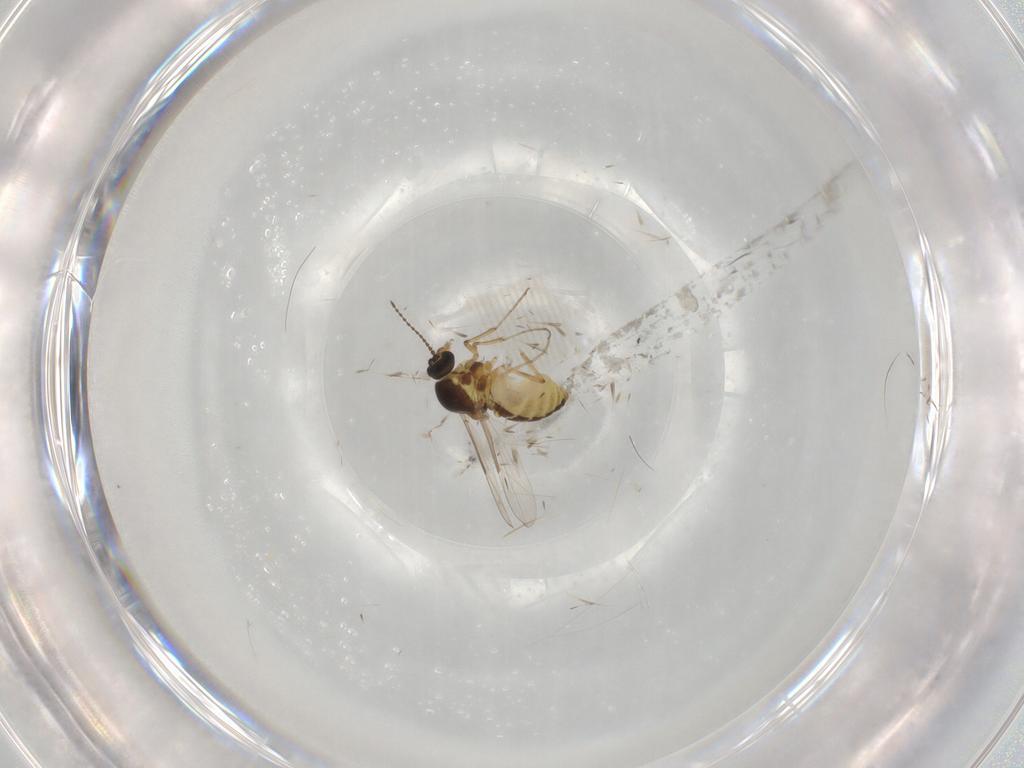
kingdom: Animalia
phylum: Arthropoda
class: Insecta
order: Diptera
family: Ceratopogonidae
